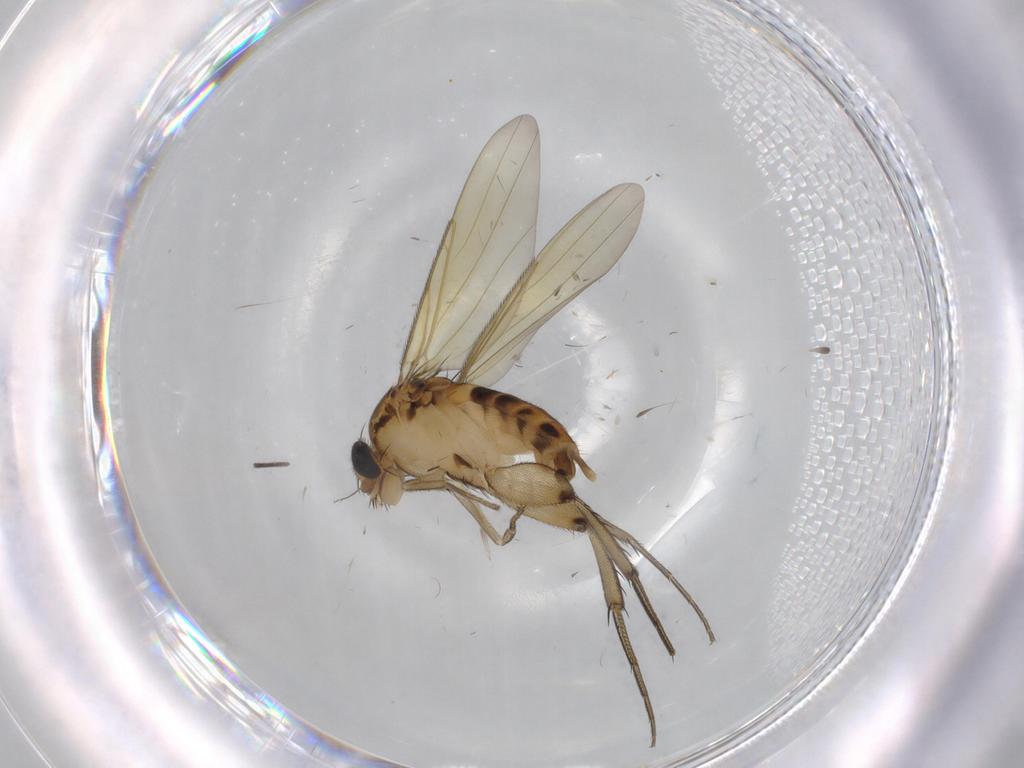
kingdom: Animalia
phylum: Arthropoda
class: Insecta
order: Diptera
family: Phoridae
